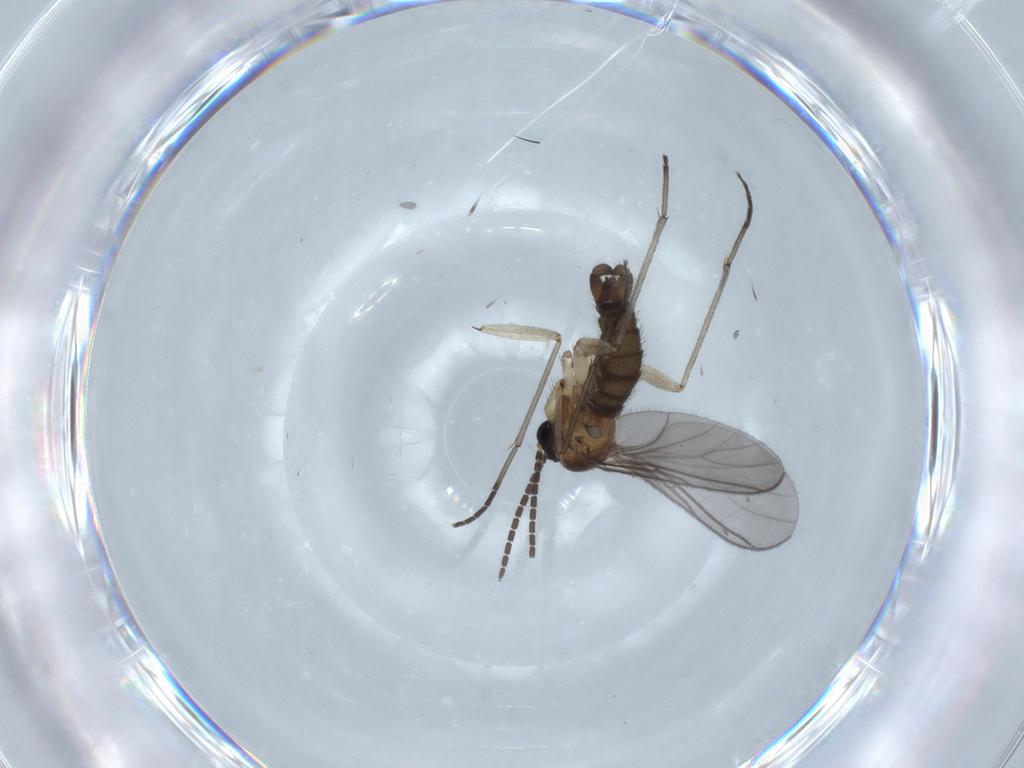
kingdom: Animalia
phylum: Arthropoda
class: Insecta
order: Diptera
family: Sciaridae
